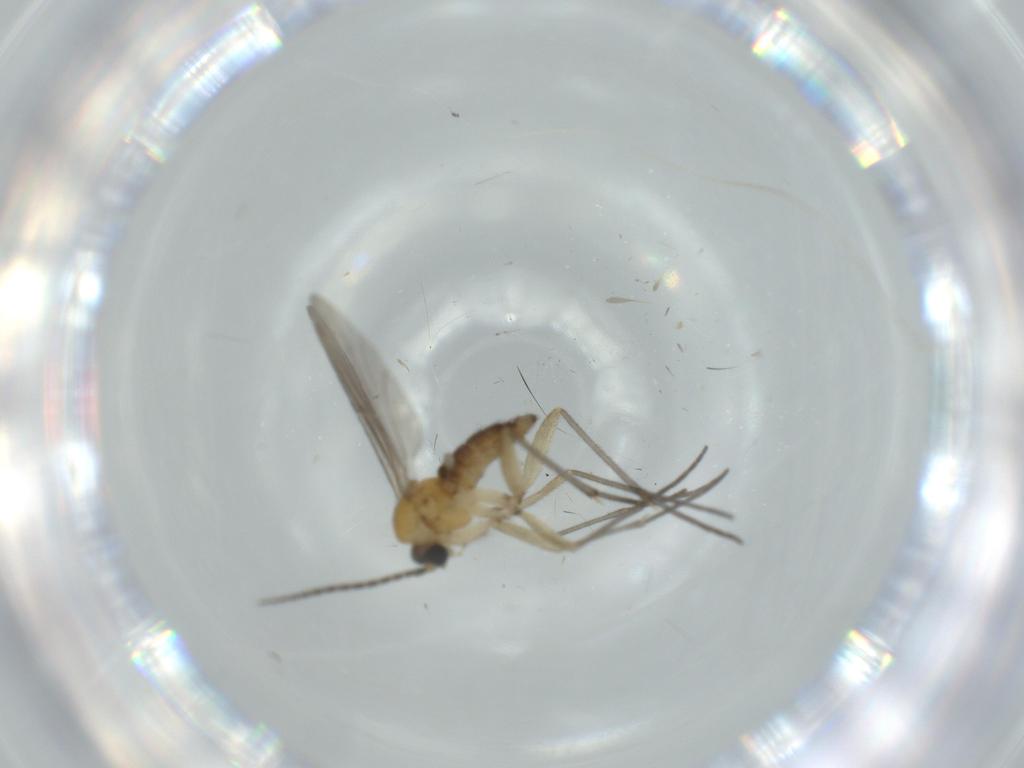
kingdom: Animalia
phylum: Arthropoda
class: Insecta
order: Diptera
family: Sciaridae
